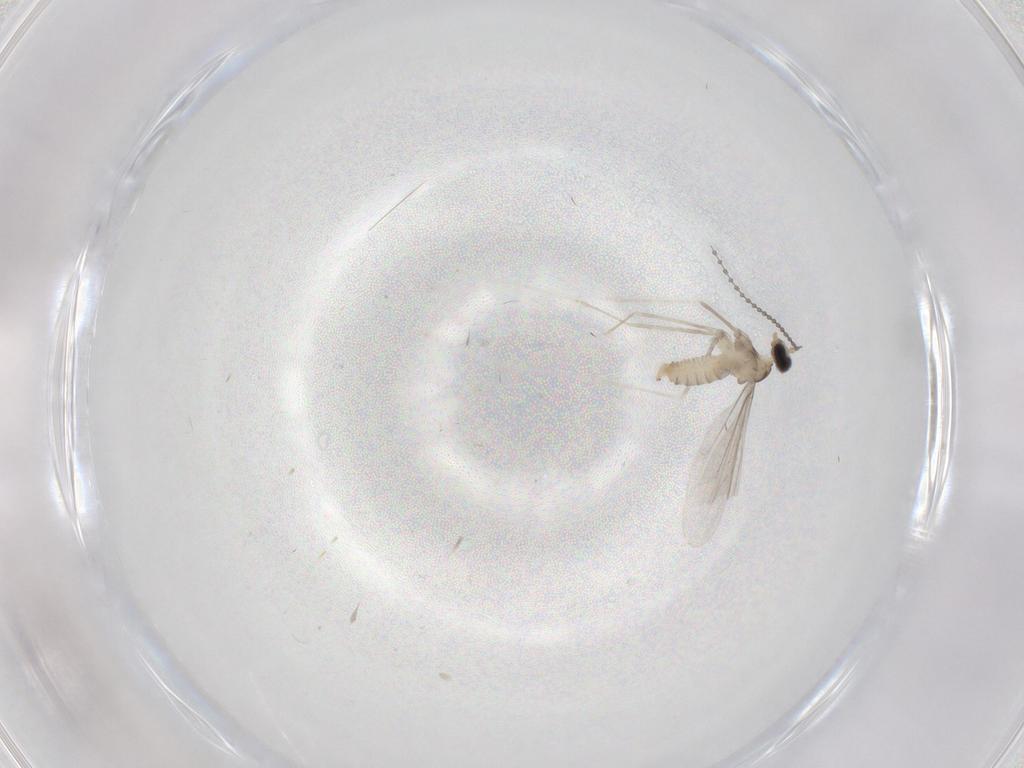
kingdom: Animalia
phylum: Arthropoda
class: Insecta
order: Diptera
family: Cecidomyiidae
